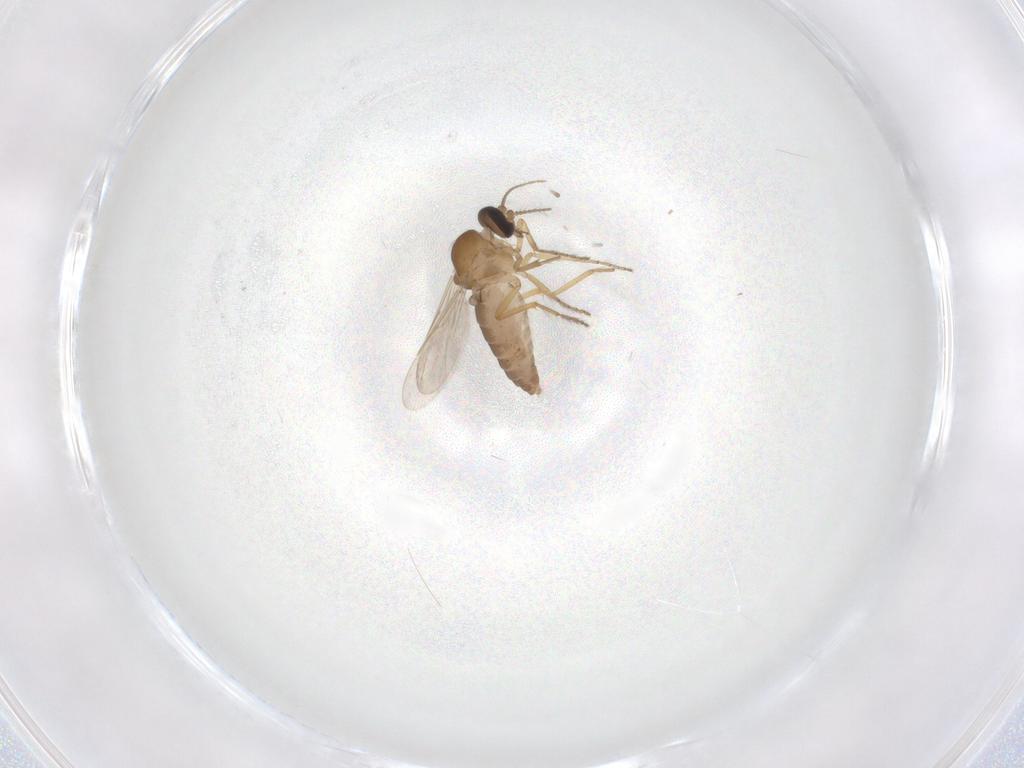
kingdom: Animalia
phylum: Arthropoda
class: Insecta
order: Diptera
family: Ceratopogonidae
